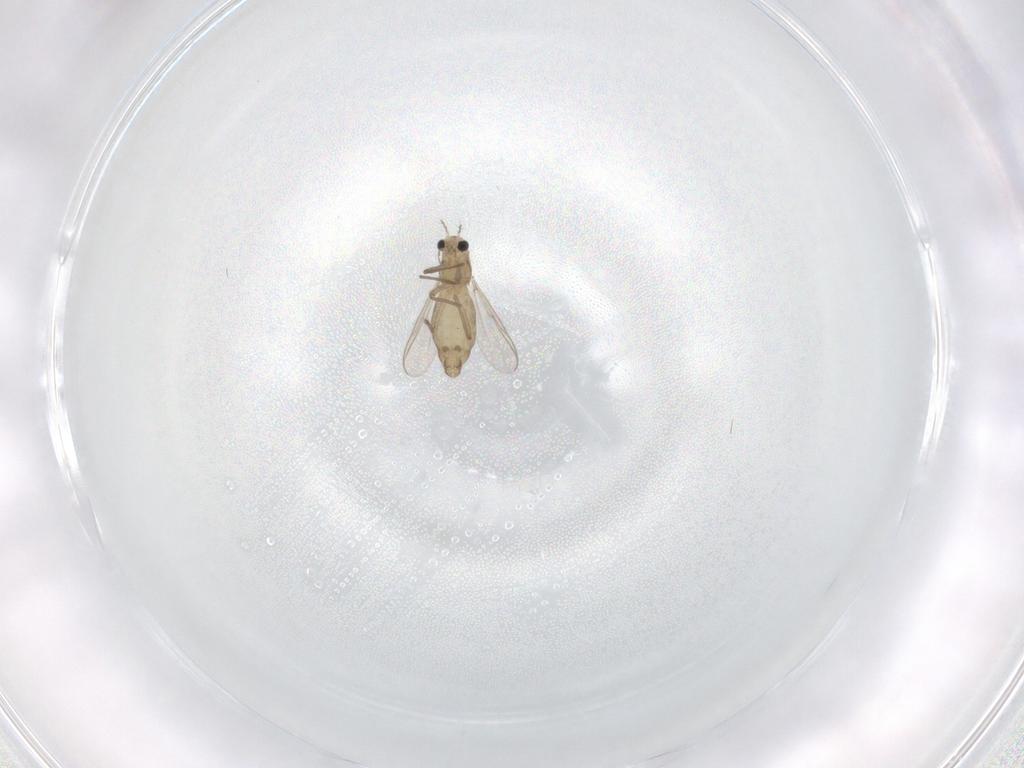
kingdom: Animalia
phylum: Arthropoda
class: Insecta
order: Diptera
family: Chironomidae
